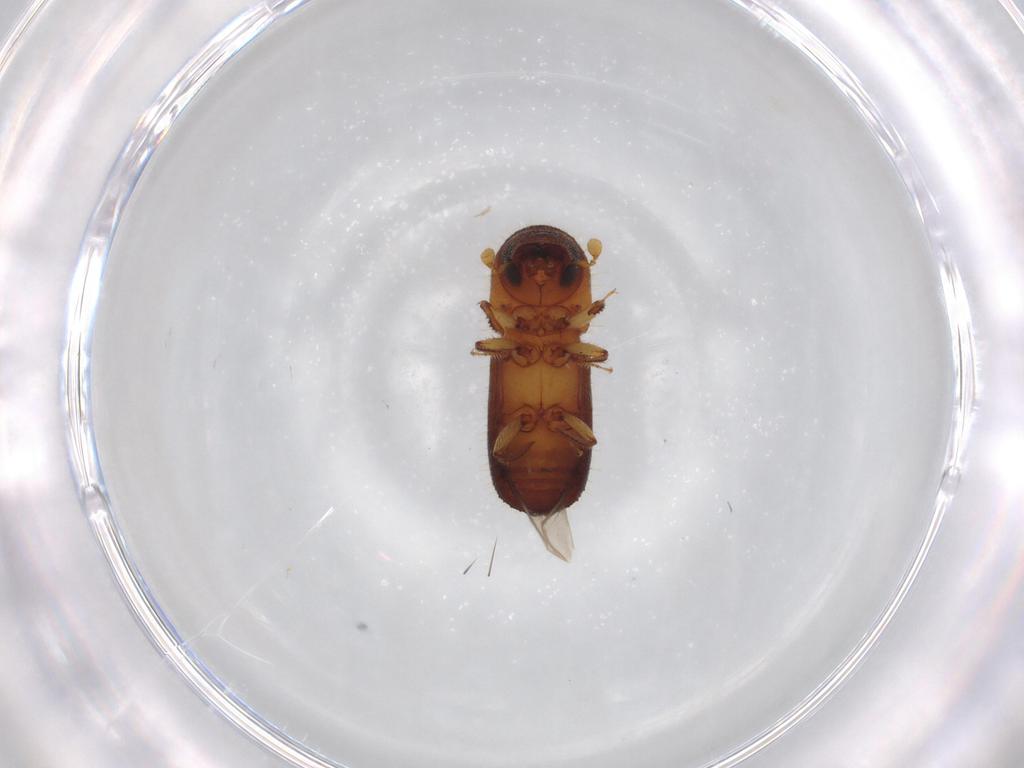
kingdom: Animalia
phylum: Arthropoda
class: Insecta
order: Coleoptera
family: Curculionidae
